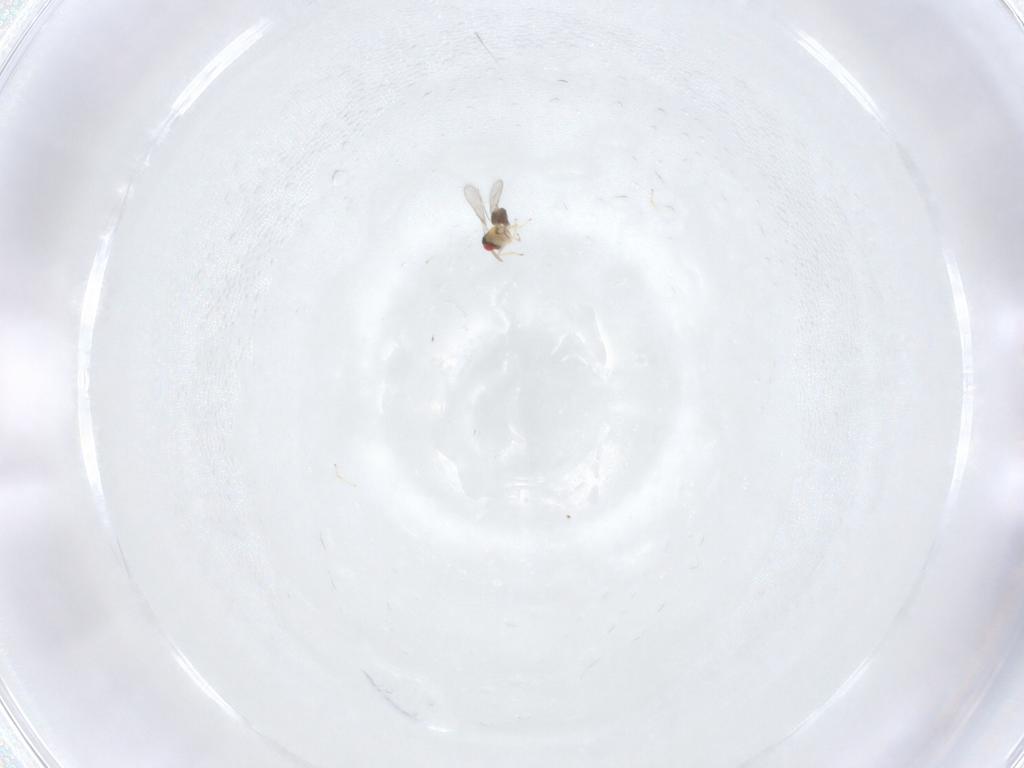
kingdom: Animalia
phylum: Arthropoda
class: Insecta
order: Hymenoptera
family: Aphelinidae
